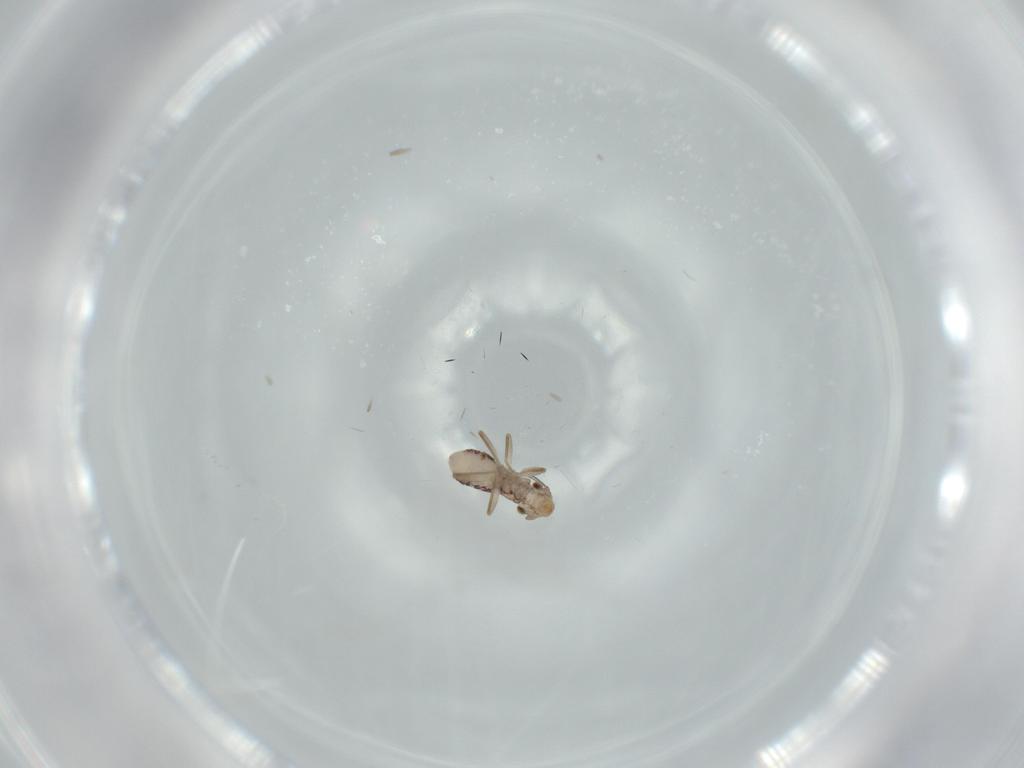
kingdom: Animalia
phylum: Arthropoda
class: Insecta
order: Psocodea
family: Lepidopsocidae
